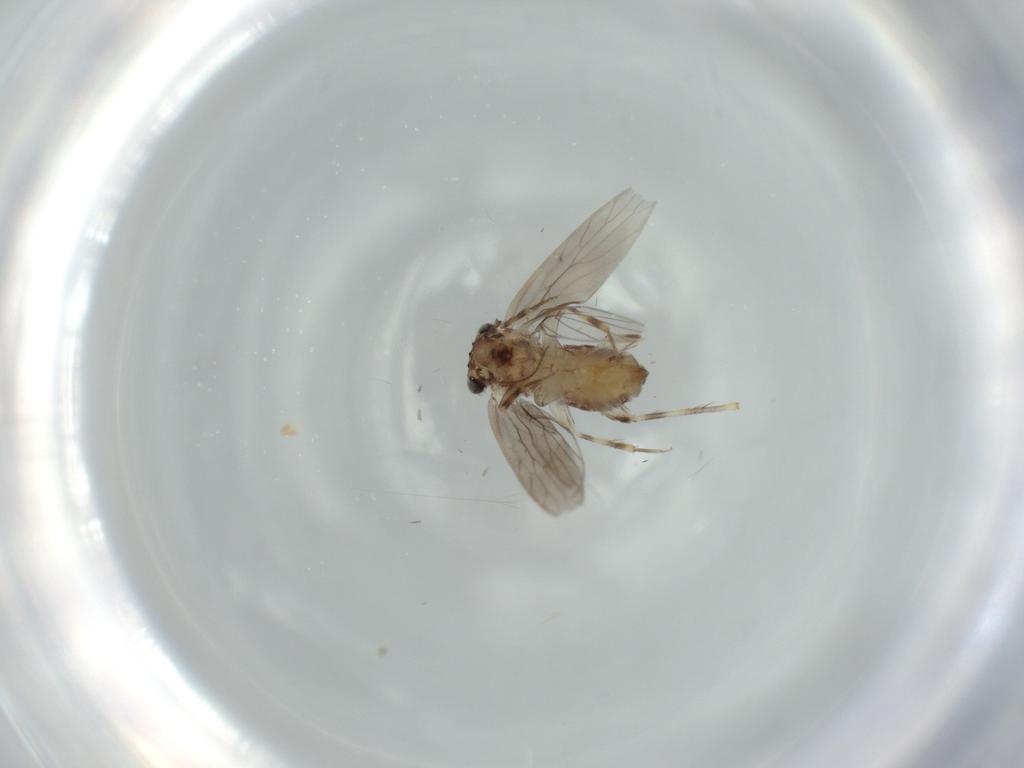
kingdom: Animalia
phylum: Arthropoda
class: Insecta
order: Psocodea
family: Lepidopsocidae
